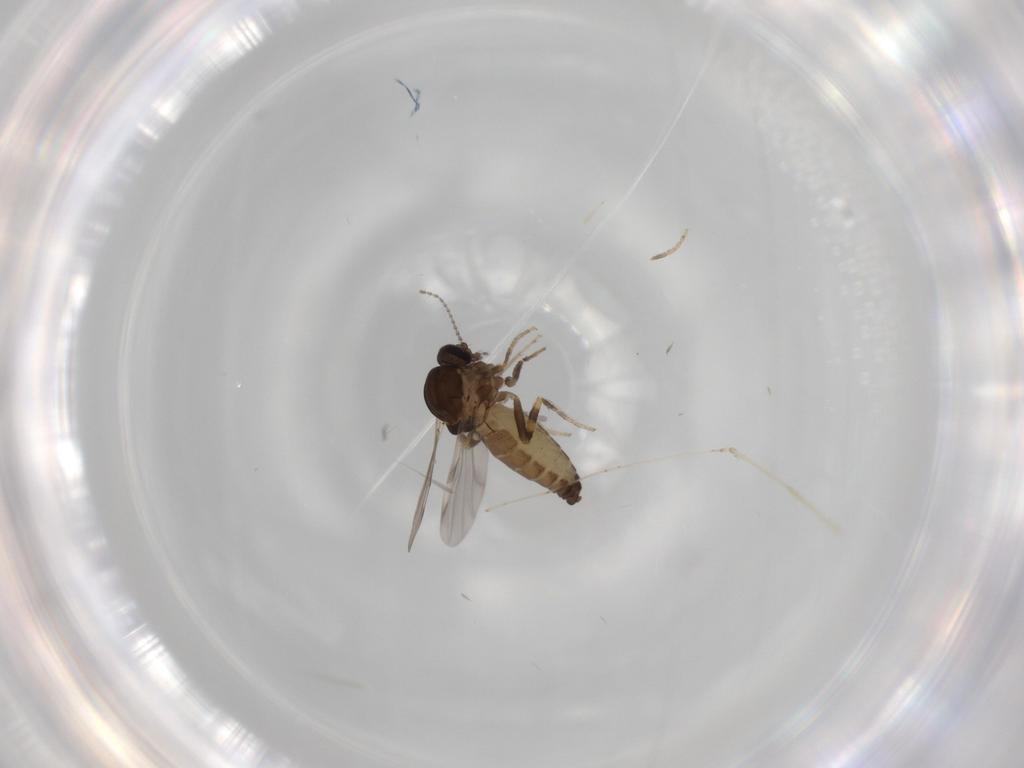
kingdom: Animalia
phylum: Arthropoda
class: Insecta
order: Diptera
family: Ceratopogonidae
